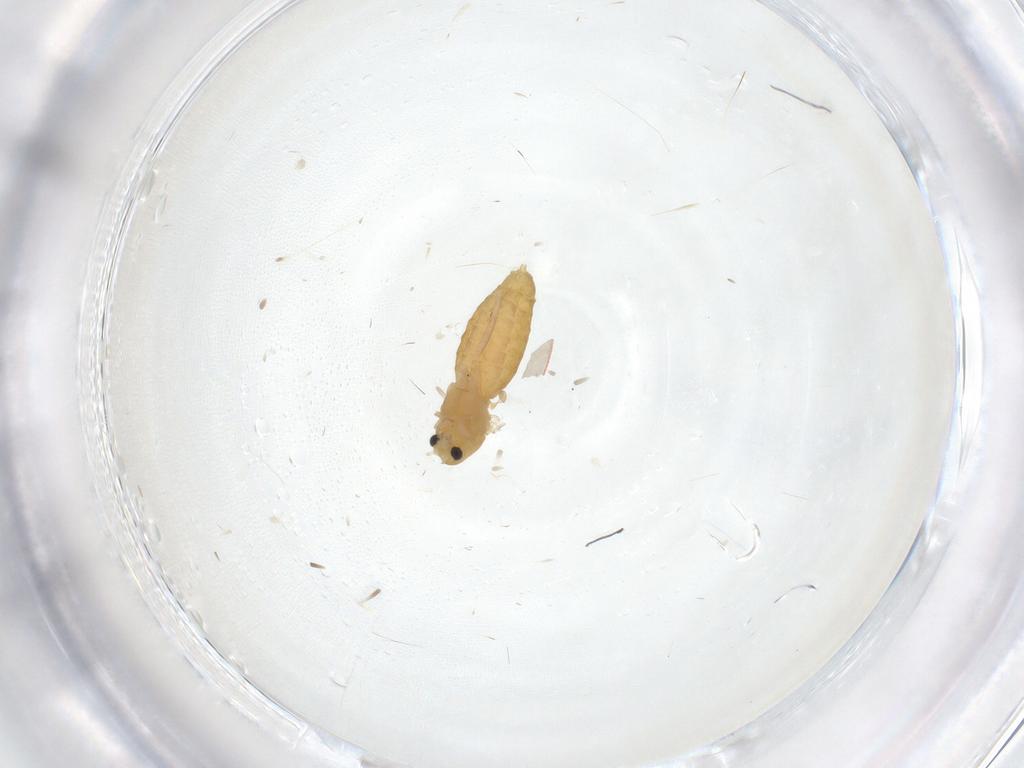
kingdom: Animalia
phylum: Arthropoda
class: Insecta
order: Diptera
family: Chironomidae
